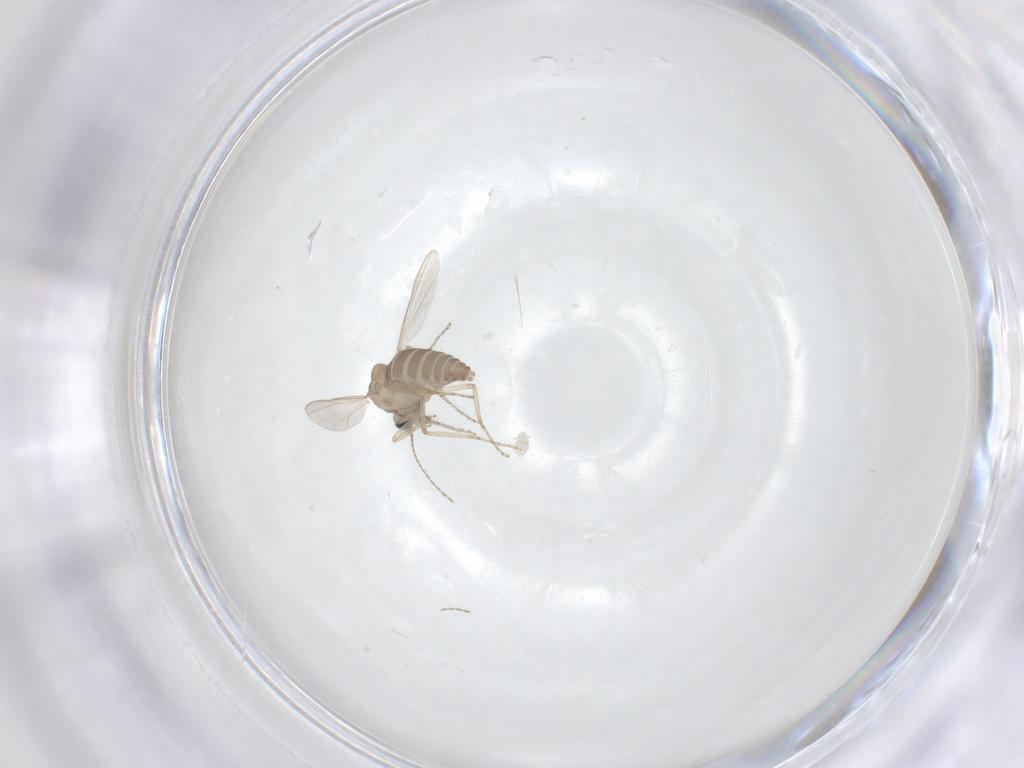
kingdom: Animalia
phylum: Arthropoda
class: Insecta
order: Diptera
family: Ceratopogonidae
